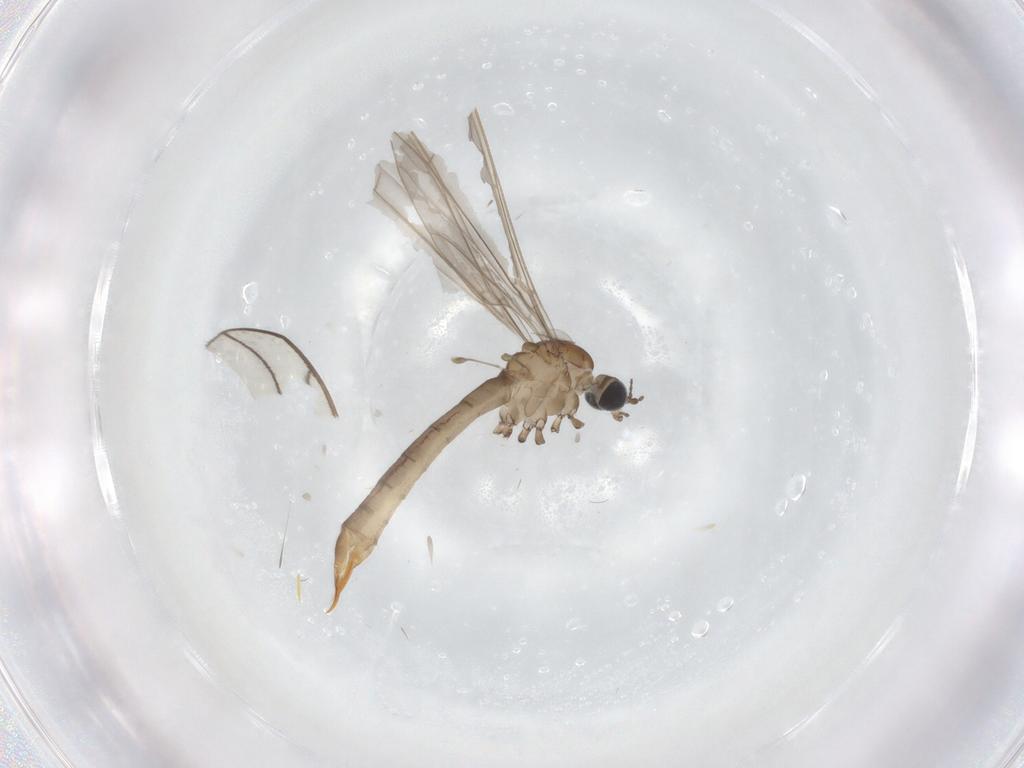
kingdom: Animalia
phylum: Arthropoda
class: Insecta
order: Diptera
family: Limoniidae
